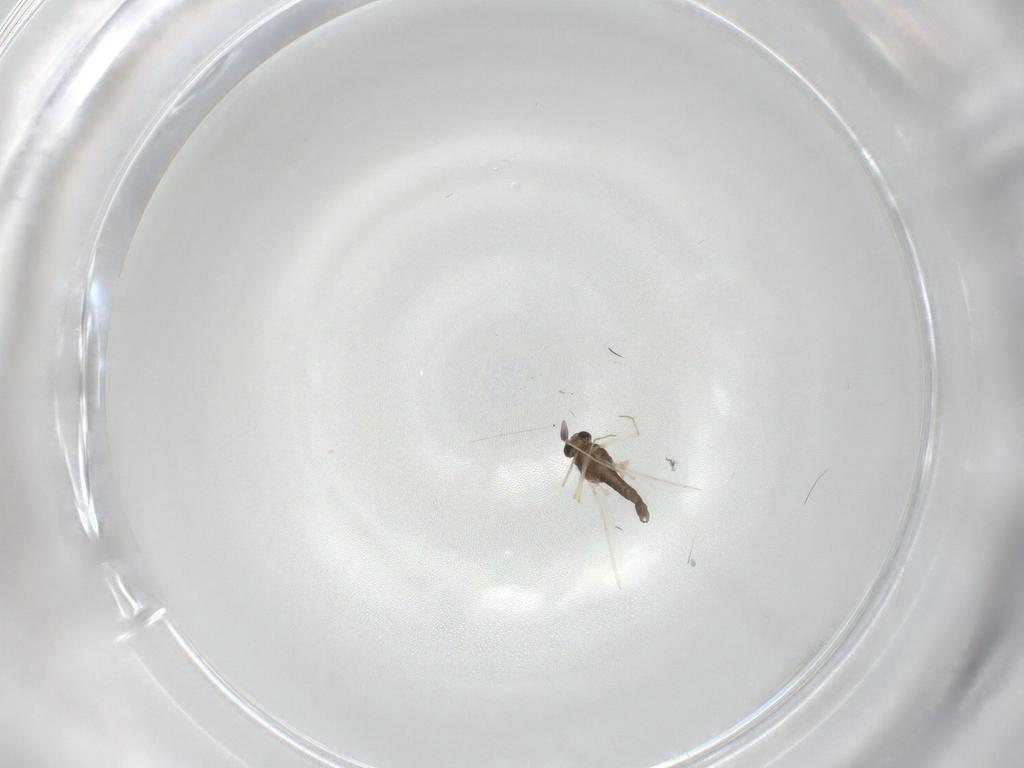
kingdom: Animalia
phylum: Arthropoda
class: Insecta
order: Diptera
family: Chironomidae
